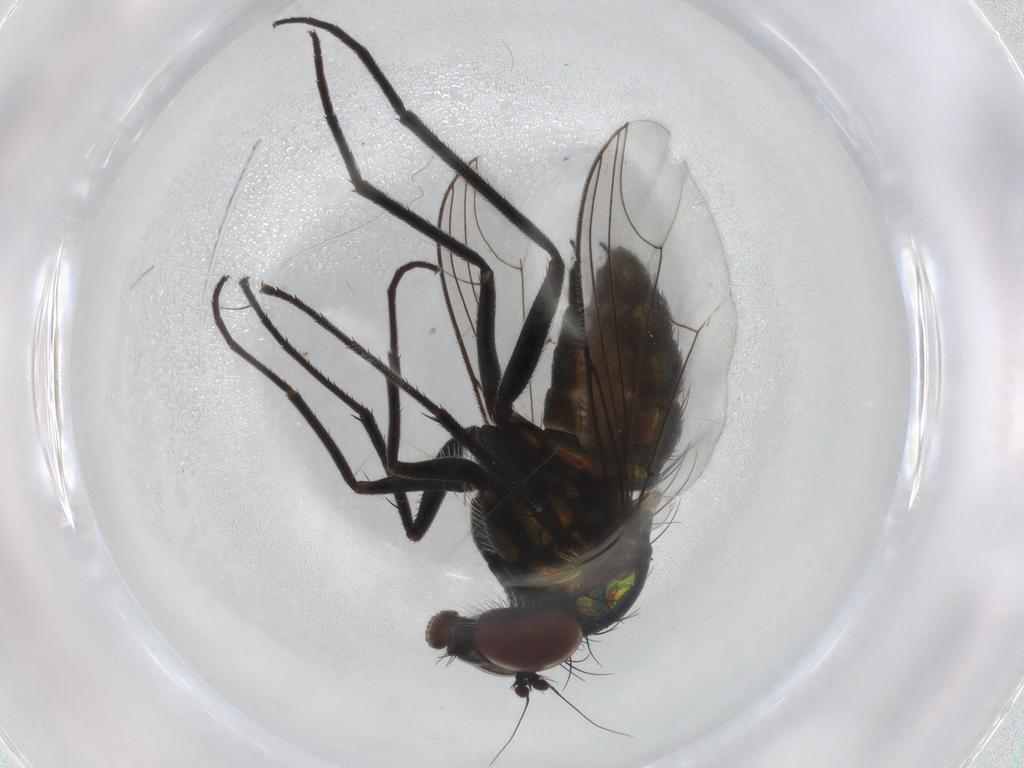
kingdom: Animalia
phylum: Arthropoda
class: Insecta
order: Diptera
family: Dolichopodidae
